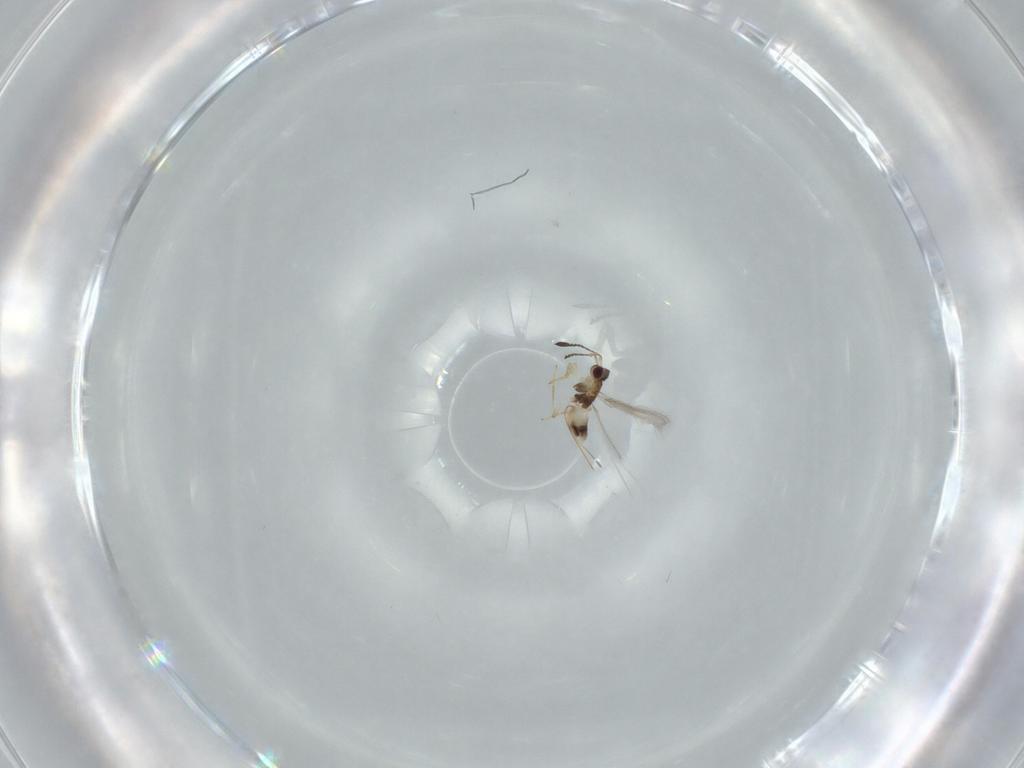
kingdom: Animalia
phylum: Arthropoda
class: Insecta
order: Hymenoptera
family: Mymaridae
